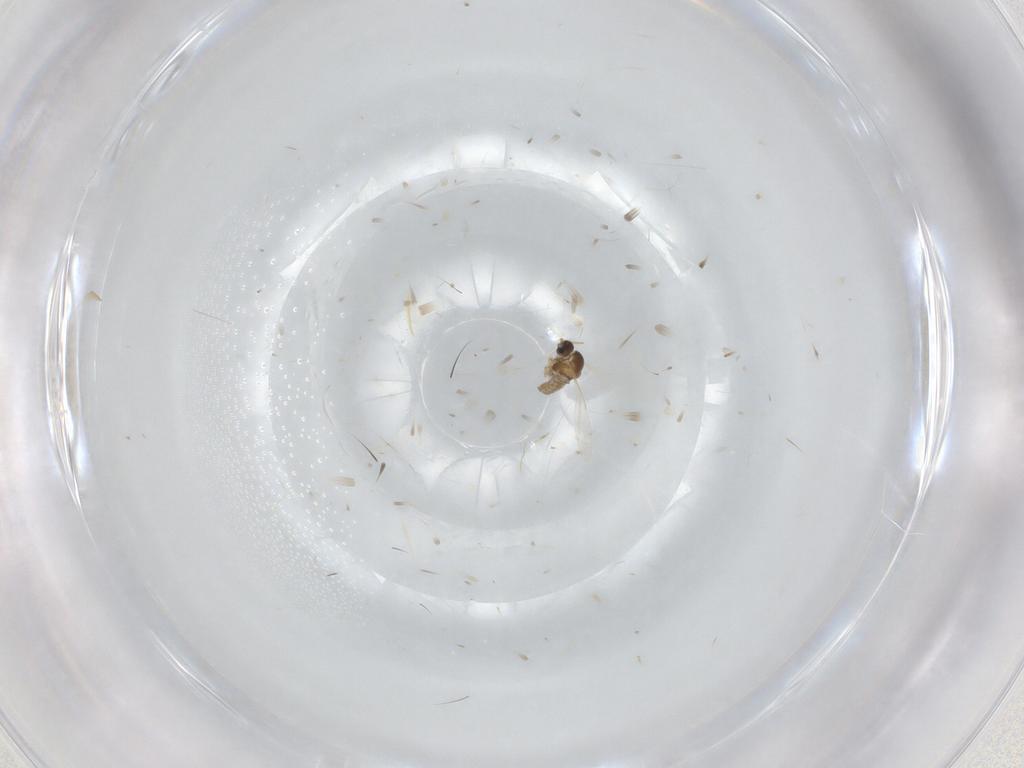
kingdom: Animalia
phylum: Arthropoda
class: Insecta
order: Diptera
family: Cecidomyiidae
